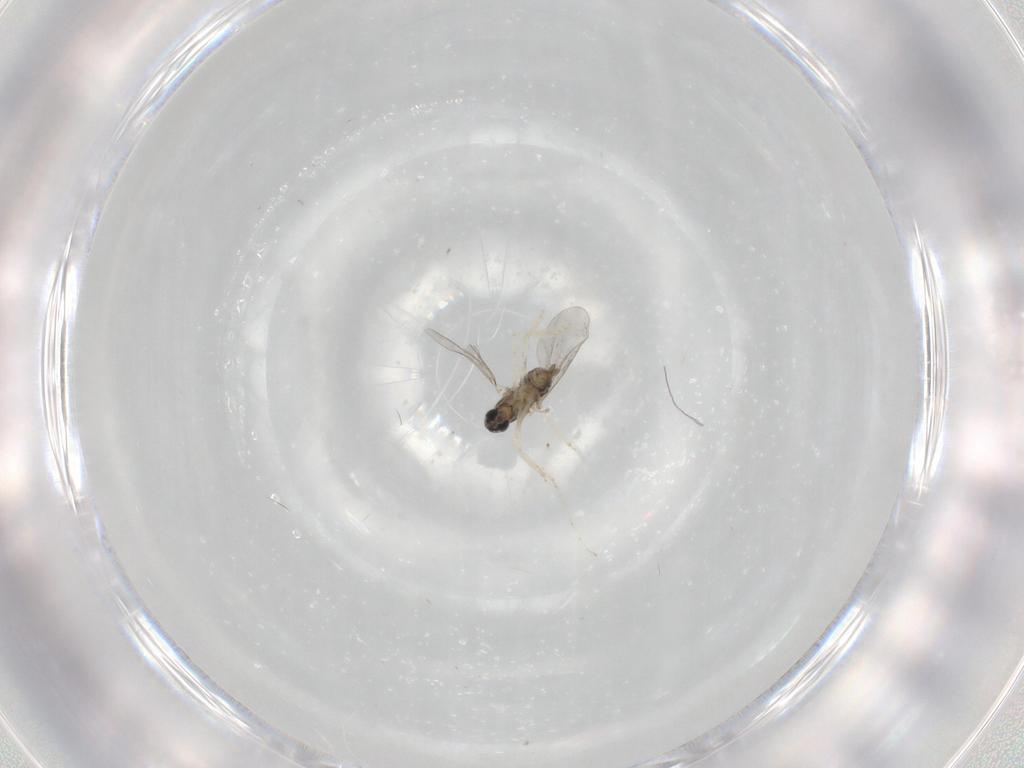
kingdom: Animalia
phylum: Arthropoda
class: Insecta
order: Diptera
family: Cecidomyiidae
